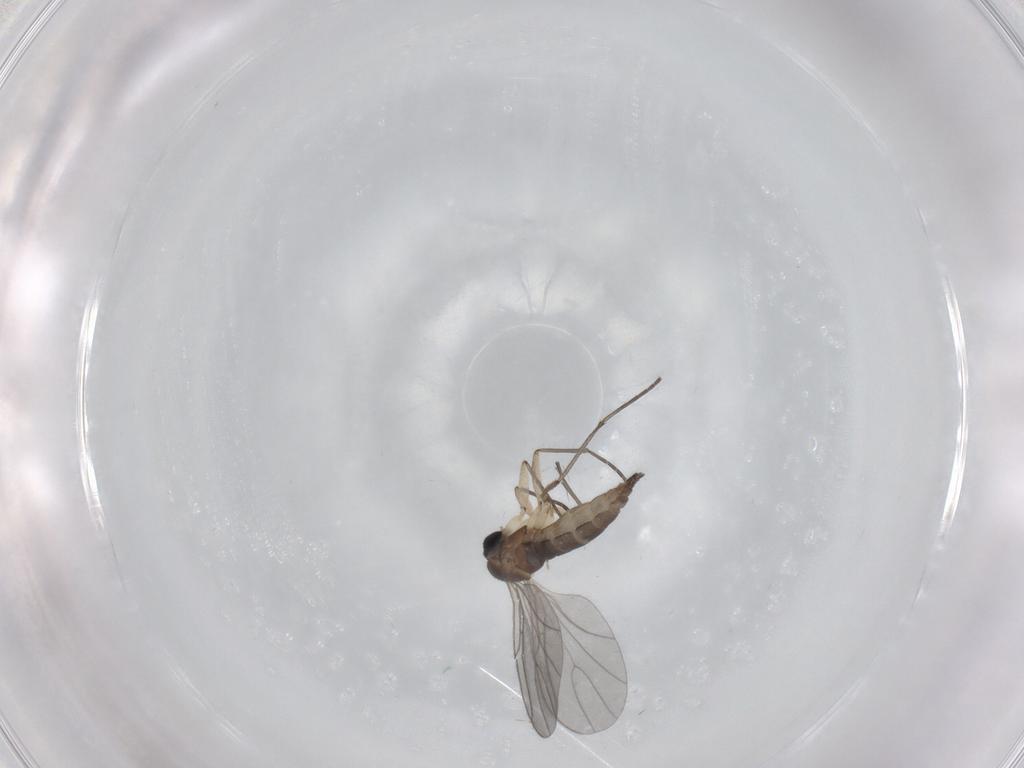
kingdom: Animalia
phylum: Arthropoda
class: Insecta
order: Diptera
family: Sciaridae
